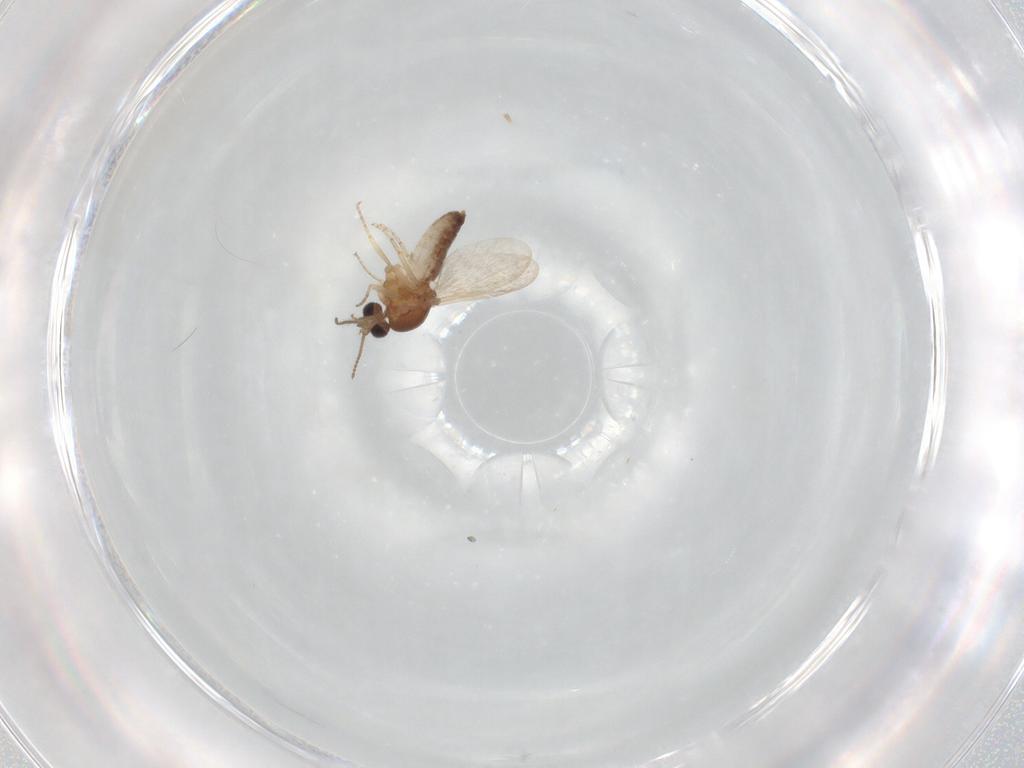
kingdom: Animalia
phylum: Arthropoda
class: Insecta
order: Diptera
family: Ceratopogonidae
